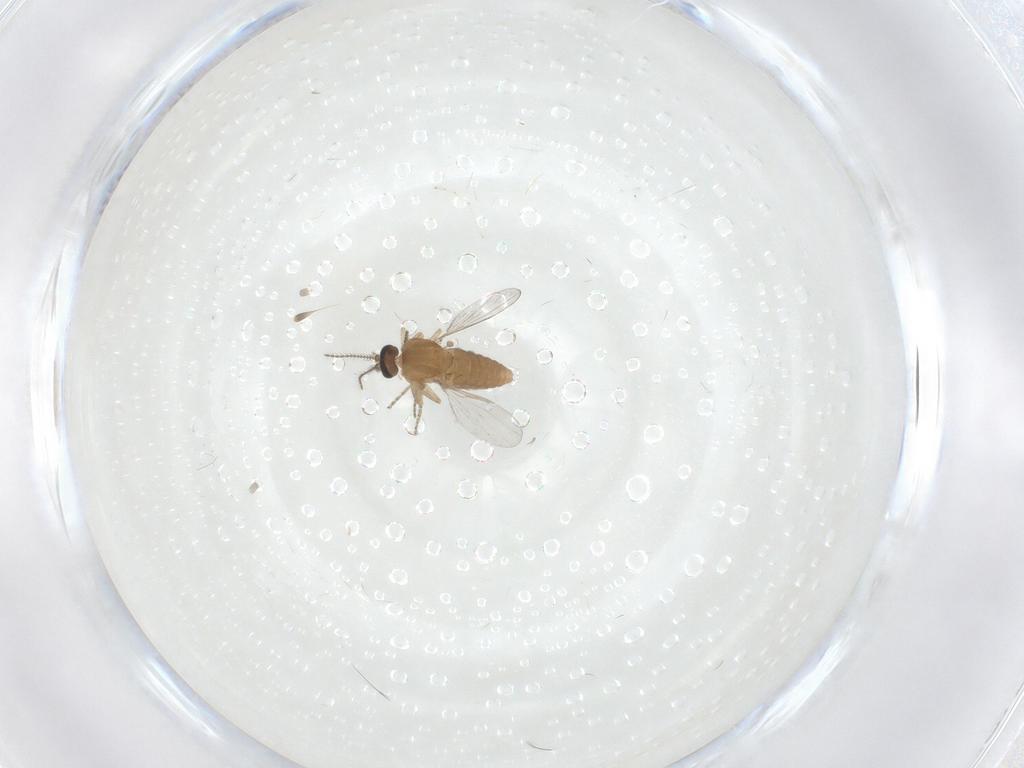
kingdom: Animalia
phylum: Arthropoda
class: Insecta
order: Diptera
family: Ceratopogonidae
